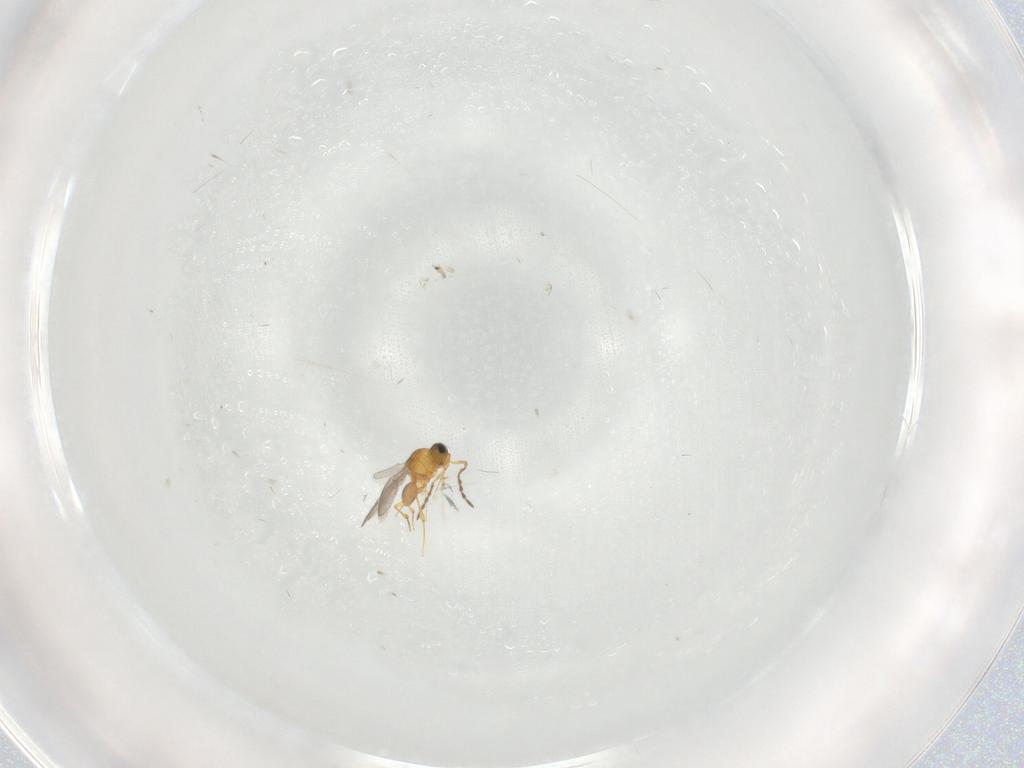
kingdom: Animalia
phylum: Arthropoda
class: Insecta
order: Hymenoptera
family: Platygastridae
